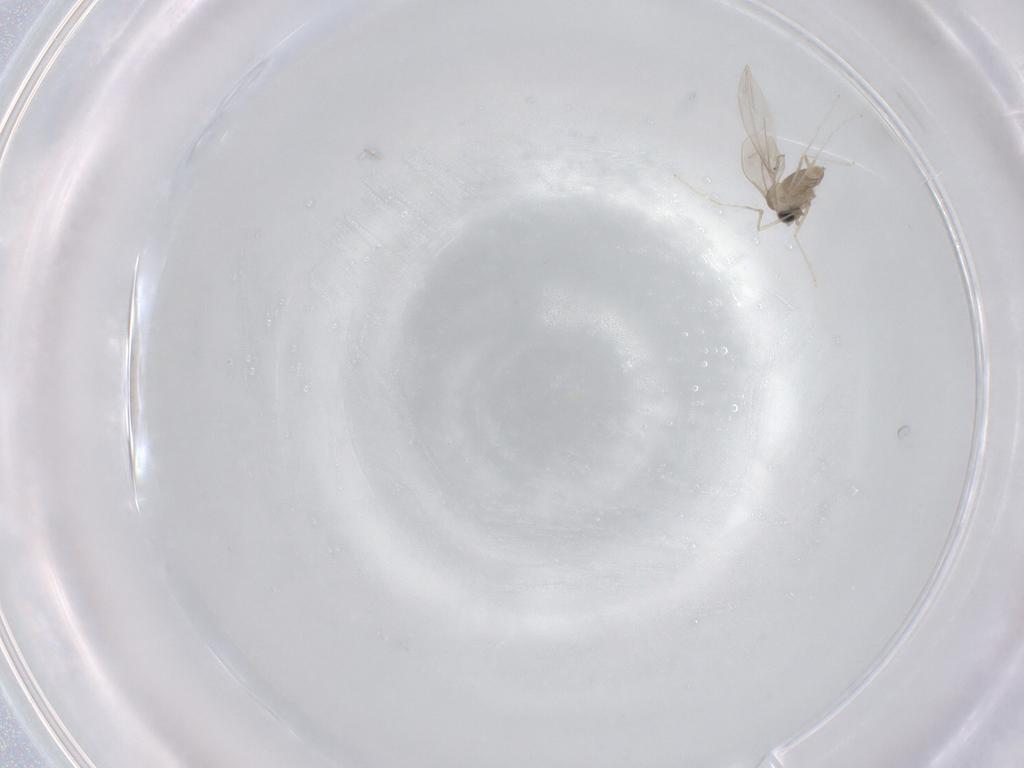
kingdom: Animalia
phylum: Arthropoda
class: Insecta
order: Diptera
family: Cecidomyiidae
